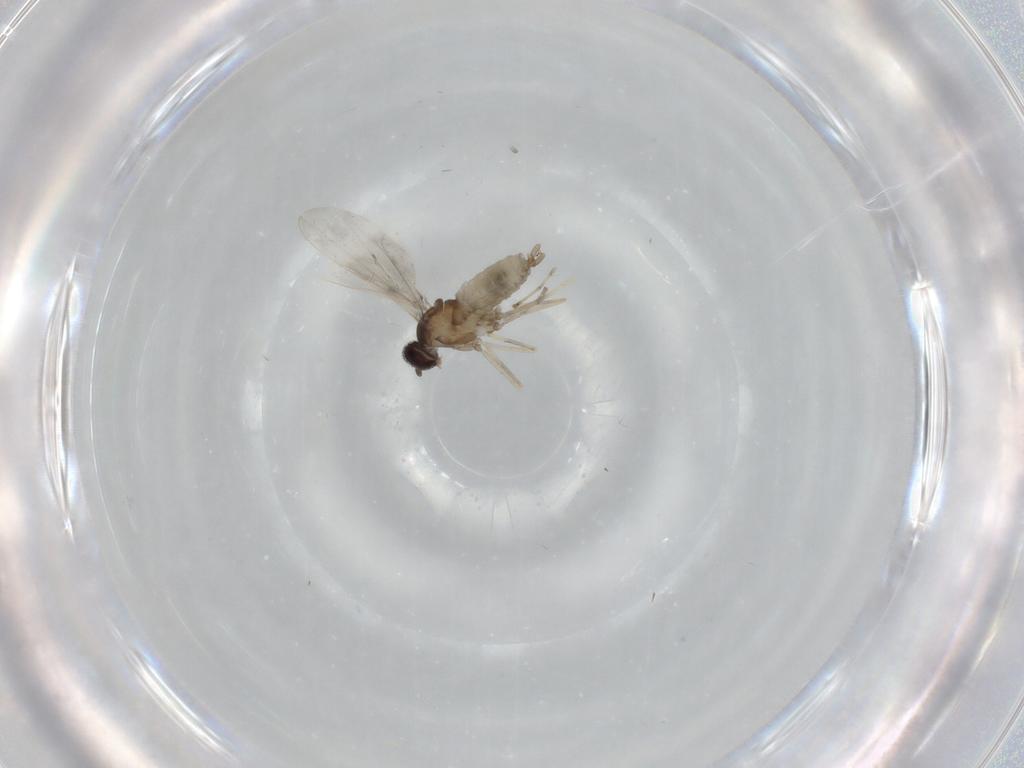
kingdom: Animalia
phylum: Arthropoda
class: Insecta
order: Diptera
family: Cecidomyiidae
